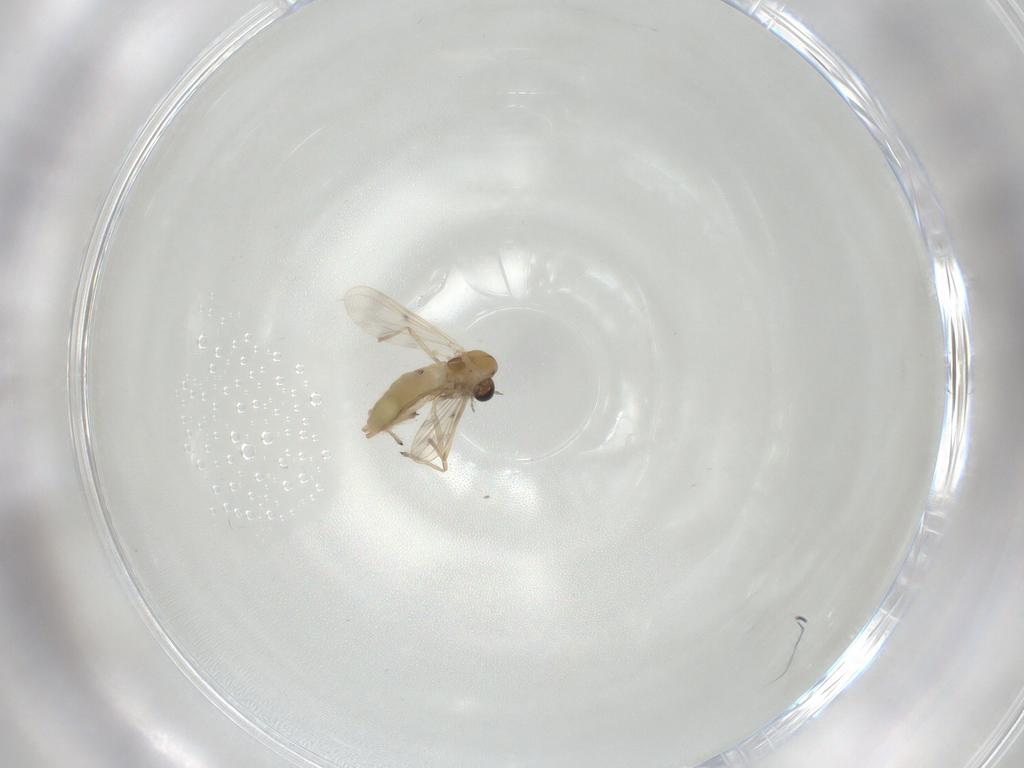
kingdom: Animalia
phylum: Arthropoda
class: Insecta
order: Diptera
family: Chironomidae
